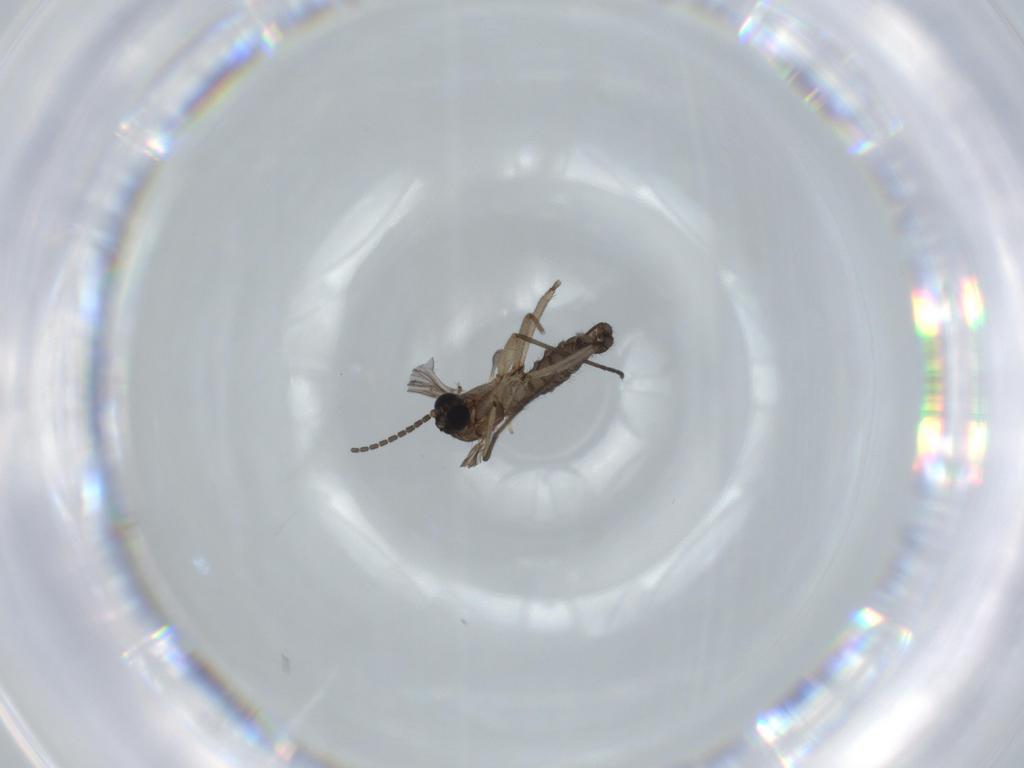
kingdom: Animalia
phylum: Arthropoda
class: Insecta
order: Diptera
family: Sciaridae
